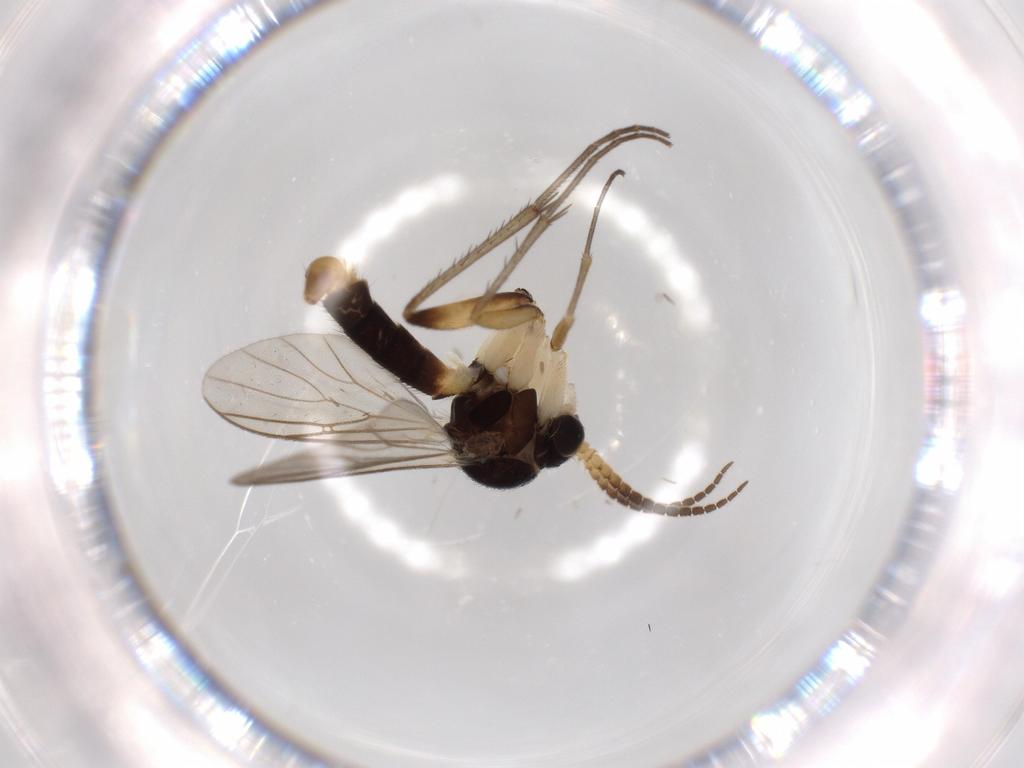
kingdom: Animalia
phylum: Arthropoda
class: Insecta
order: Diptera
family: Mycetophilidae
